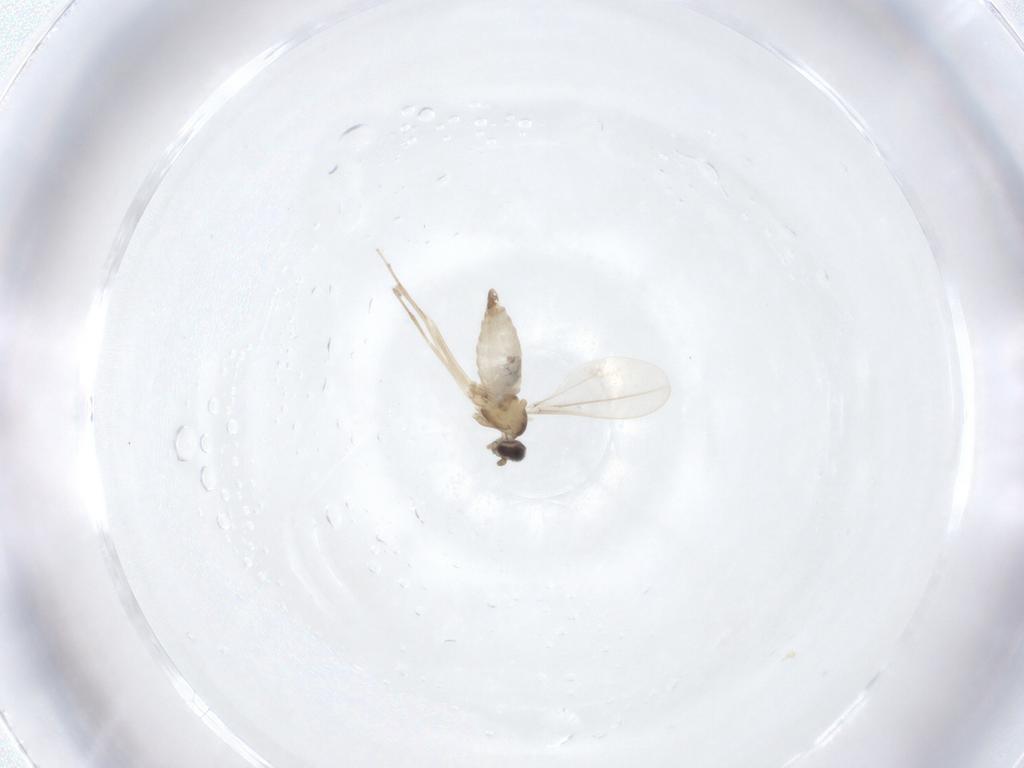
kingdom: Animalia
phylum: Arthropoda
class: Insecta
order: Diptera
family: Cecidomyiidae
